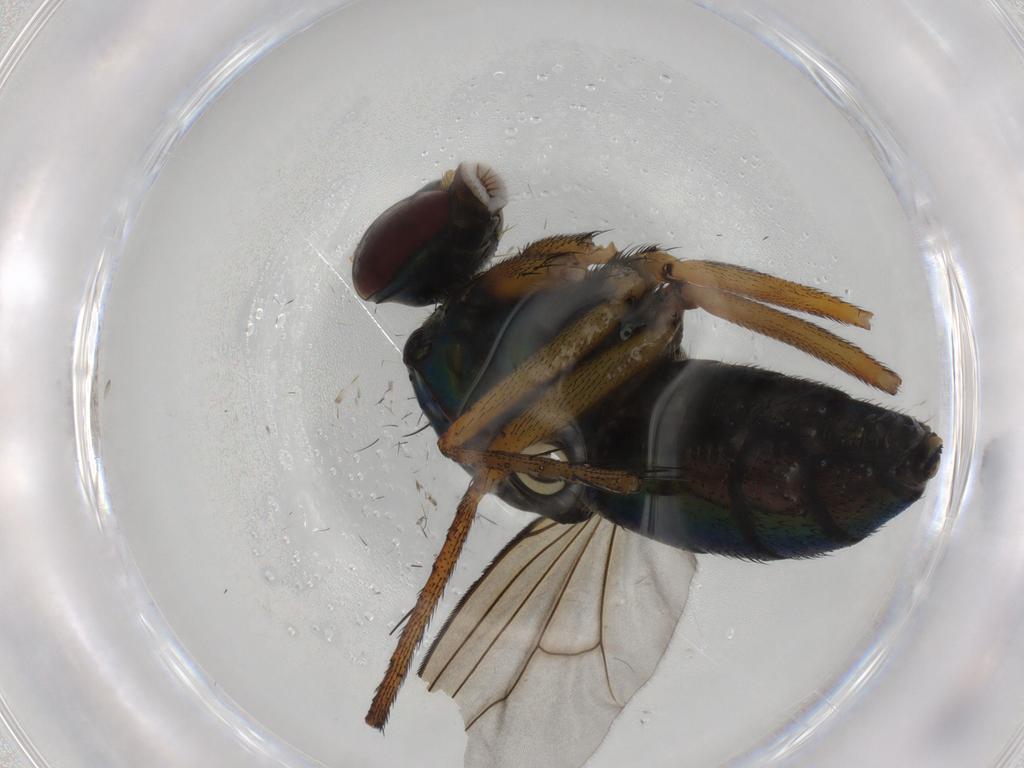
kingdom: Animalia
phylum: Arthropoda
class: Insecta
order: Diptera
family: Dolichopodidae
